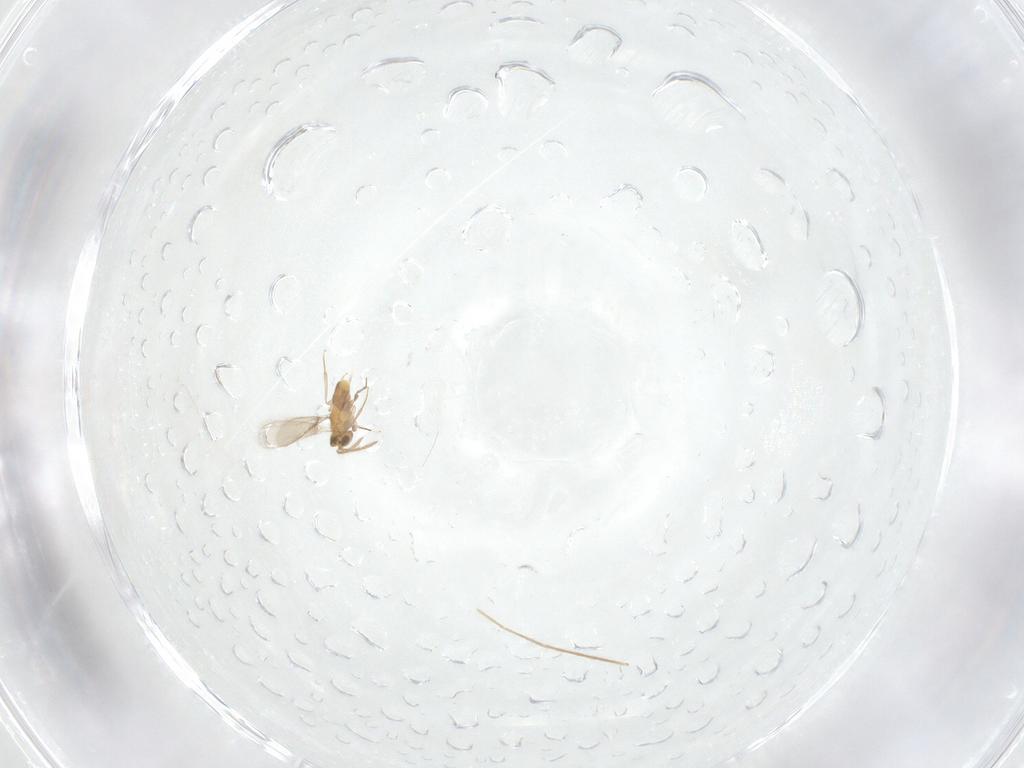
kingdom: Animalia
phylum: Arthropoda
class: Insecta
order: Hymenoptera
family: Aphelinidae
